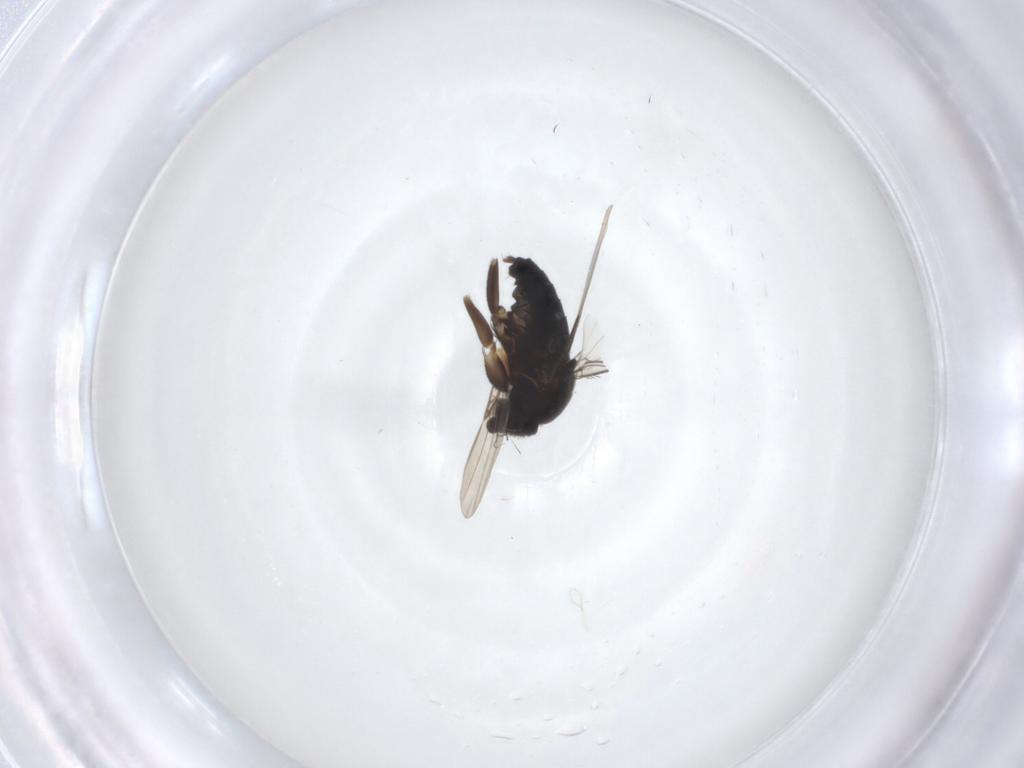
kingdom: Animalia
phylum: Arthropoda
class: Insecta
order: Diptera
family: Phoridae
